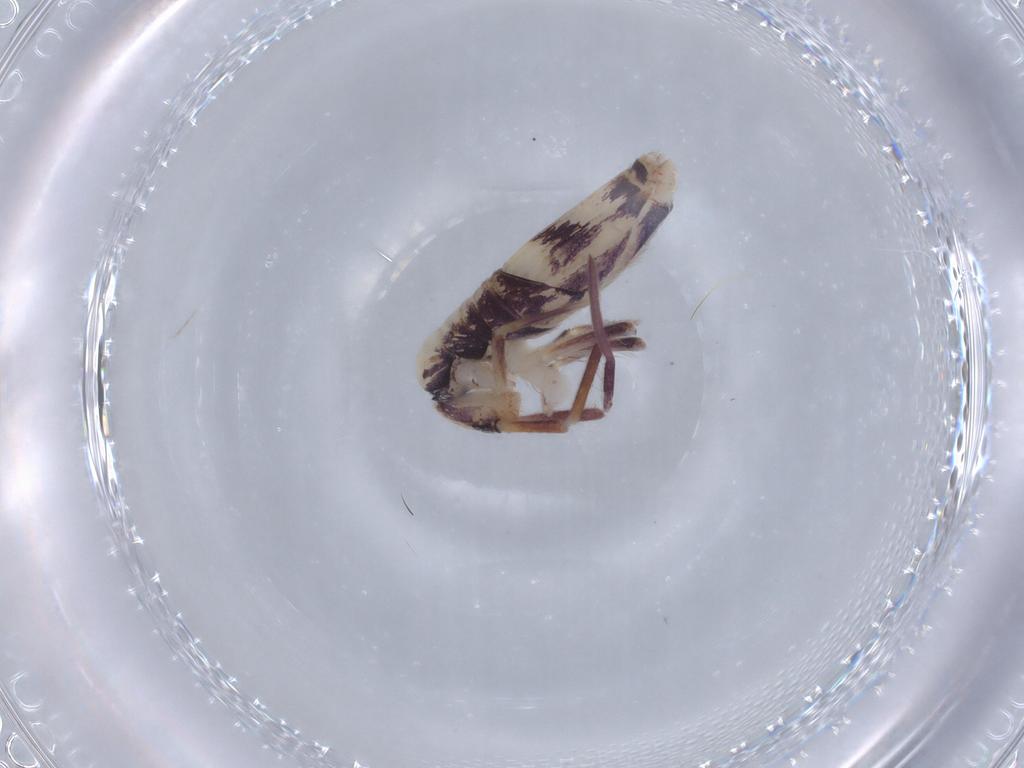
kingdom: Animalia
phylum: Arthropoda
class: Collembola
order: Entomobryomorpha
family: Entomobryidae
